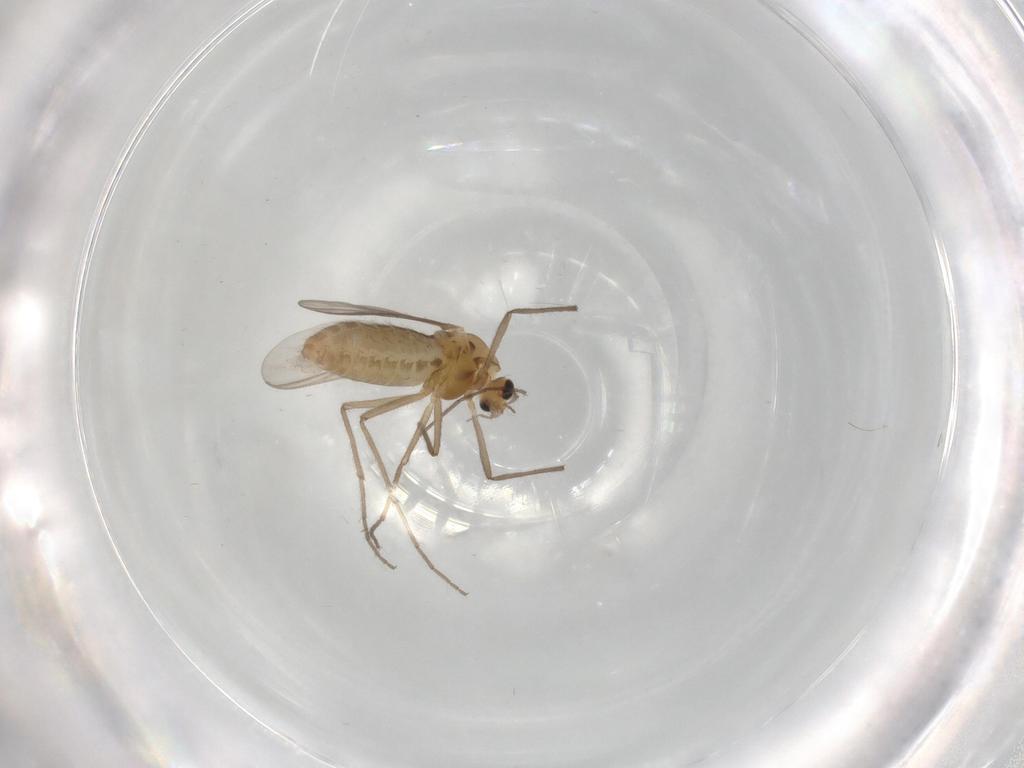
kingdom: Animalia
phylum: Arthropoda
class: Insecta
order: Diptera
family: Chironomidae
